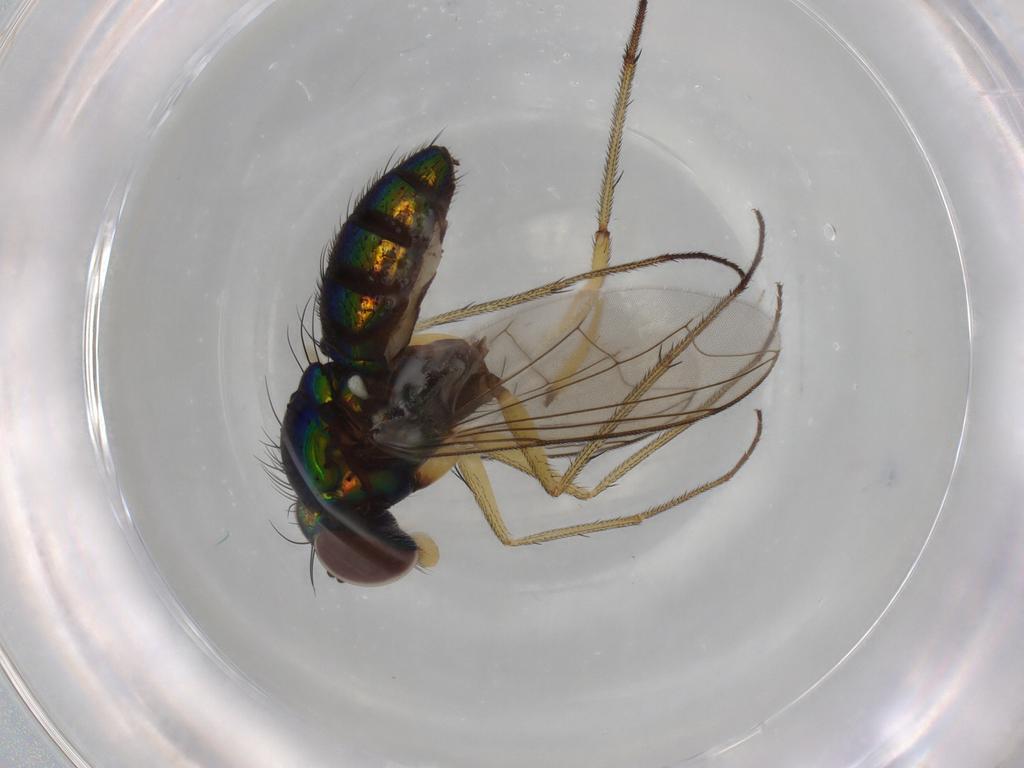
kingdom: Animalia
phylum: Arthropoda
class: Insecta
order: Diptera
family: Dolichopodidae
